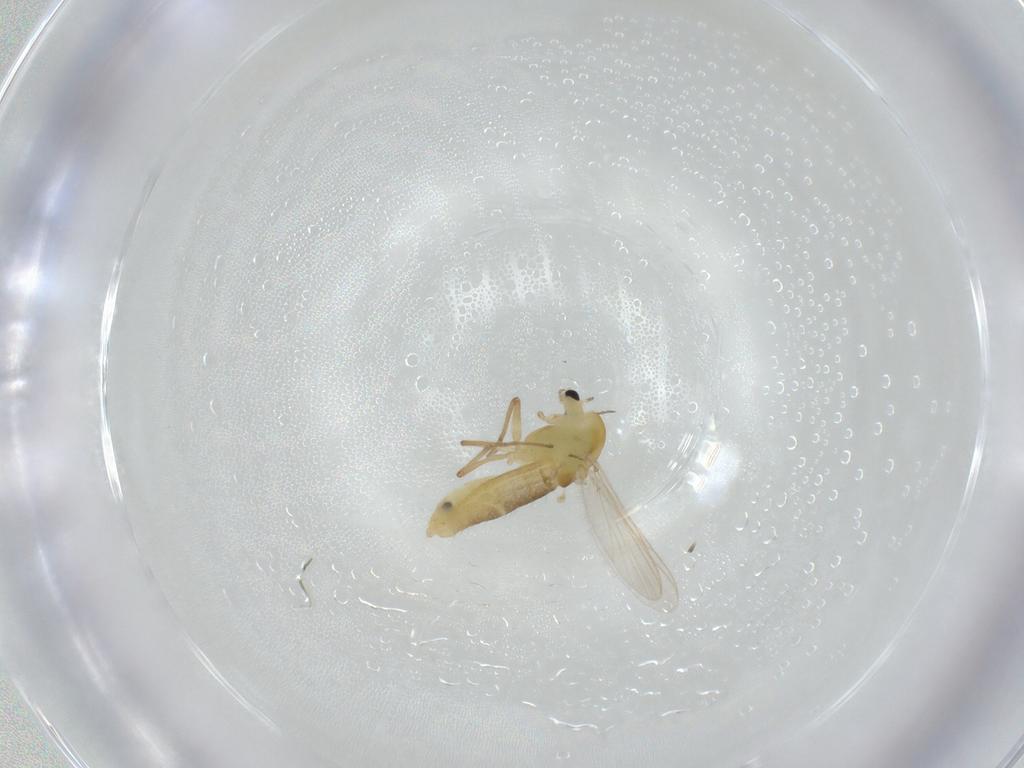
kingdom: Animalia
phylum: Arthropoda
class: Insecta
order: Diptera
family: Chironomidae
